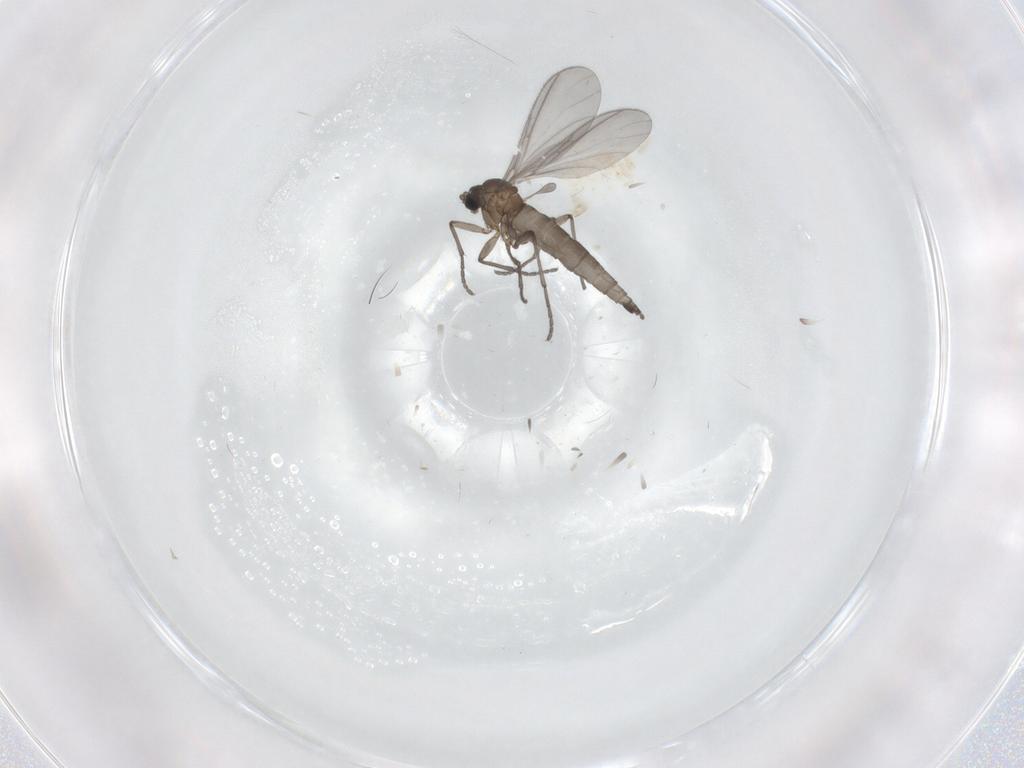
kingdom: Animalia
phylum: Arthropoda
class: Insecta
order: Diptera
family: Sciaridae
